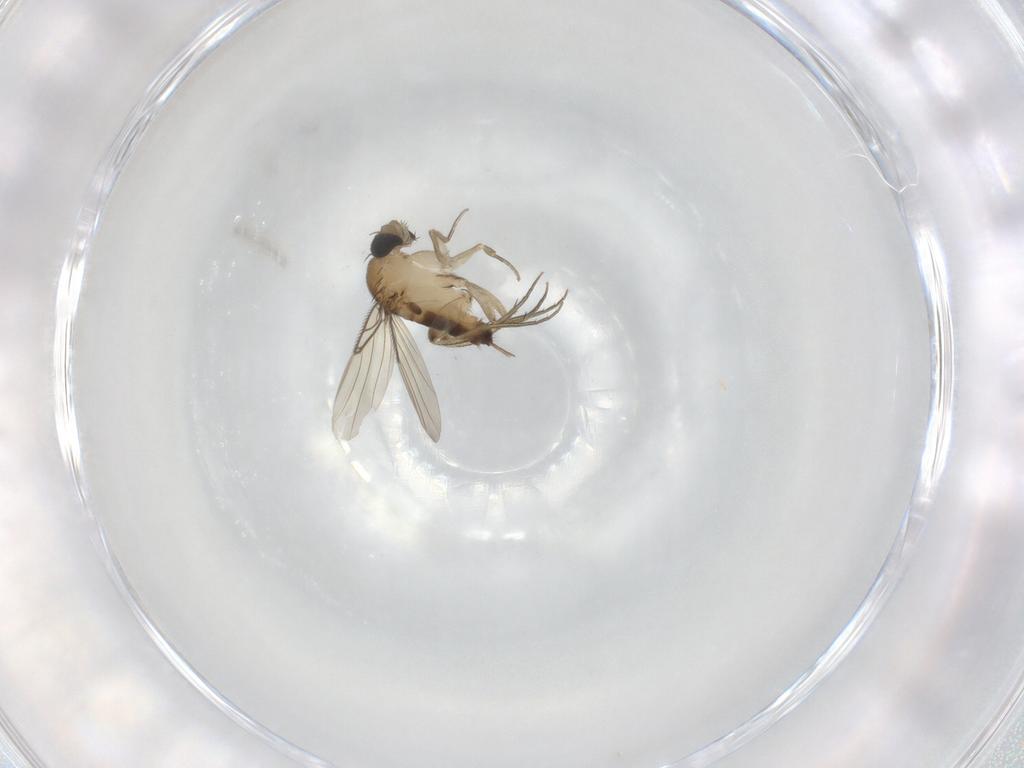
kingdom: Animalia
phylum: Arthropoda
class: Insecta
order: Diptera
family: Phoridae
